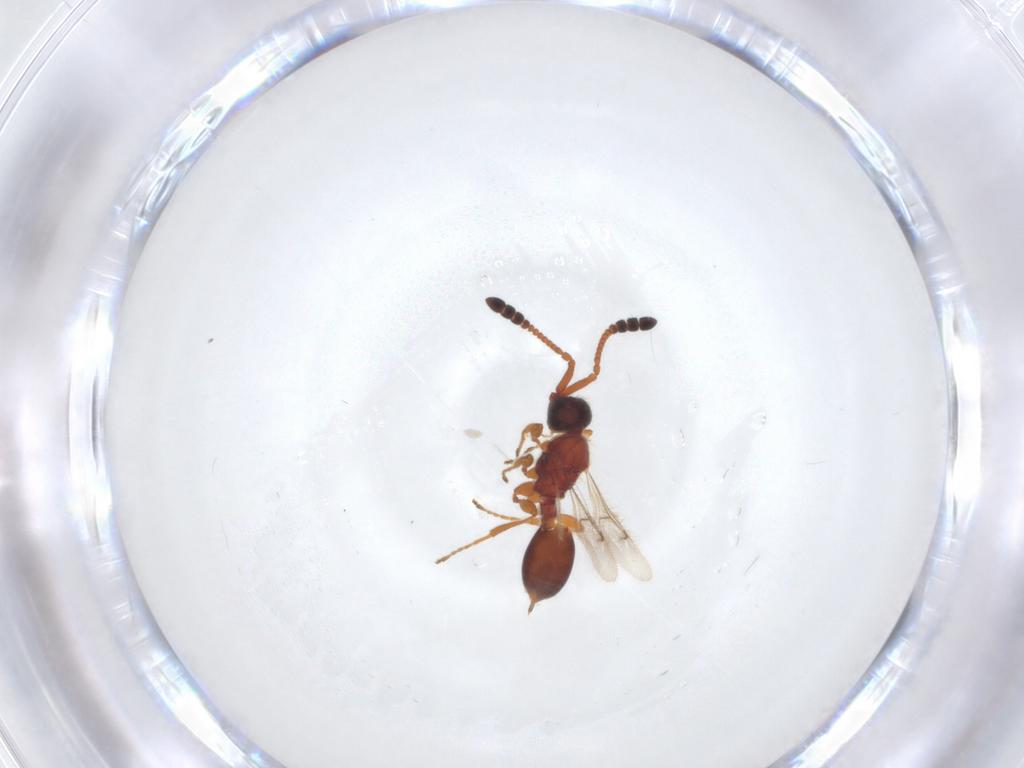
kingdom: Animalia
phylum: Arthropoda
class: Insecta
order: Hymenoptera
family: Diapriidae
